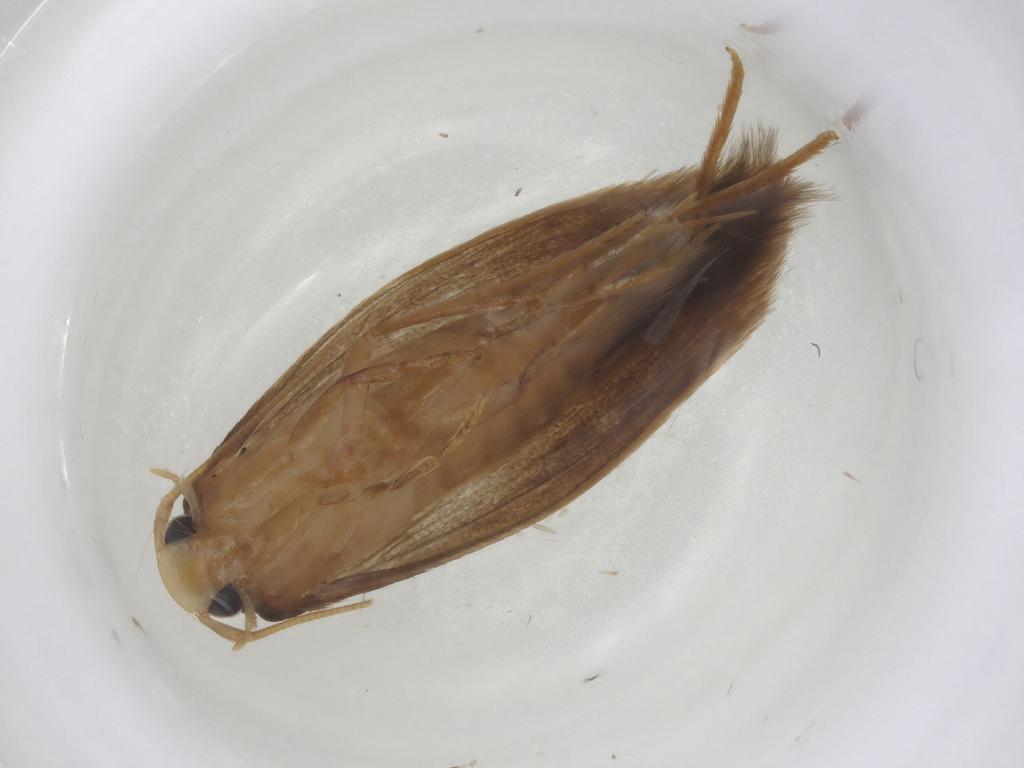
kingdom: Animalia
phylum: Arthropoda
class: Insecta
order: Lepidoptera
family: Tineidae
